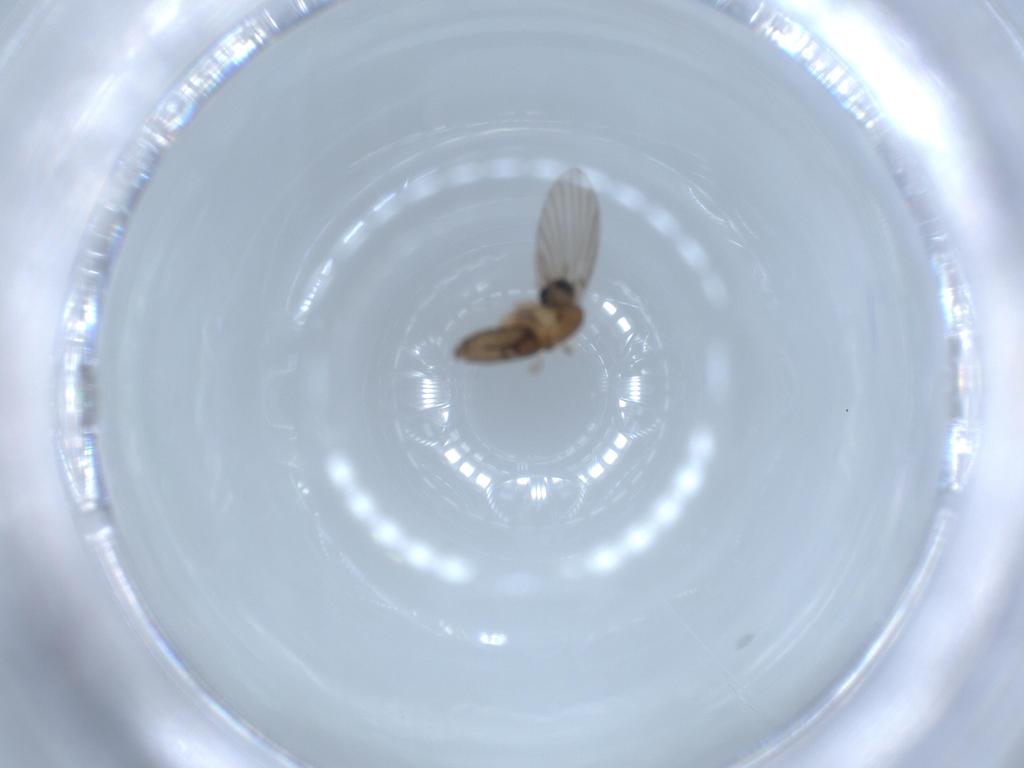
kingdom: Animalia
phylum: Arthropoda
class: Insecta
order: Diptera
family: Psychodidae
